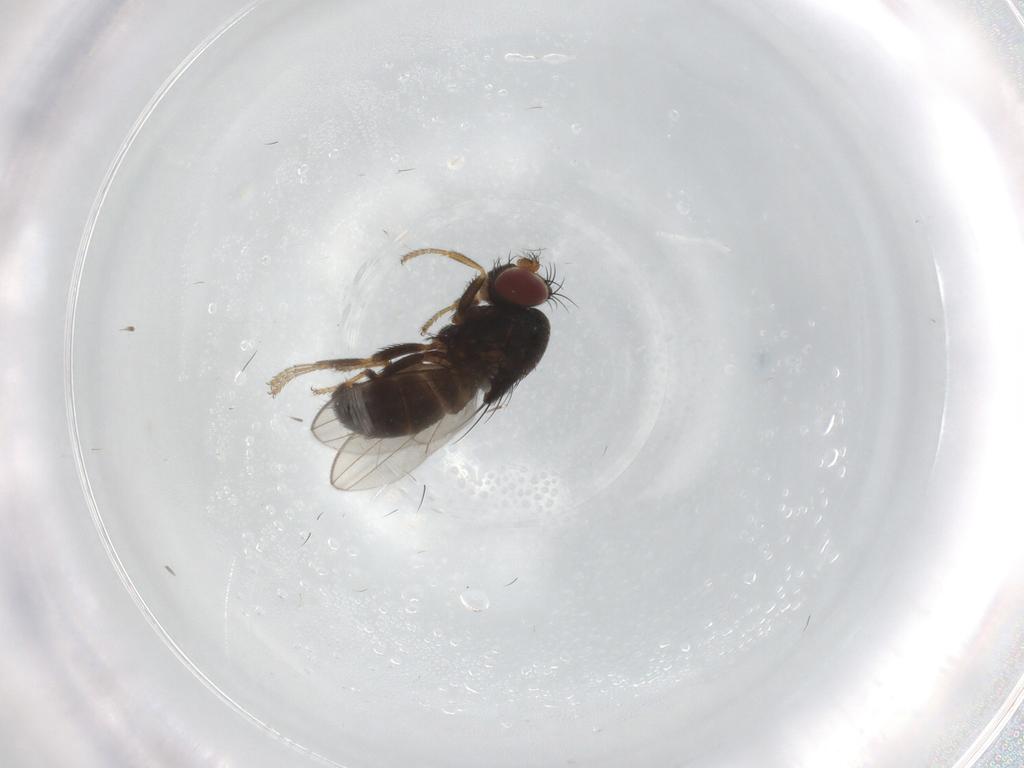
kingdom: Animalia
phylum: Arthropoda
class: Insecta
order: Diptera
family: Ephydridae
